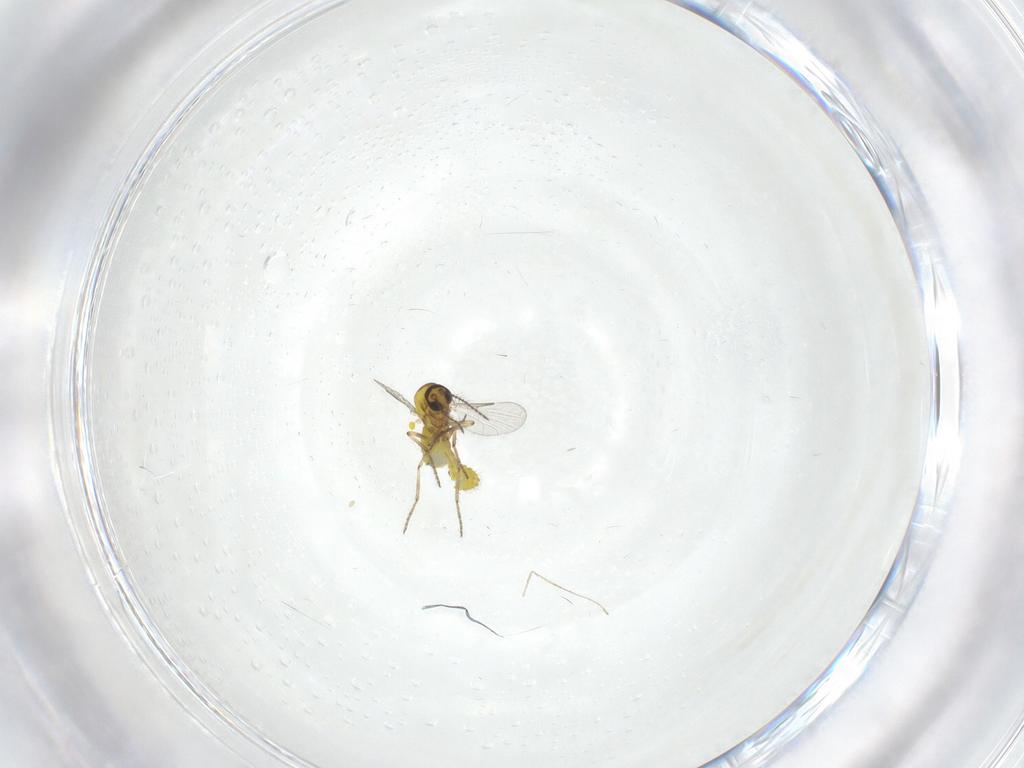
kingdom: Animalia
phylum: Arthropoda
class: Insecta
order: Diptera
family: Cecidomyiidae
